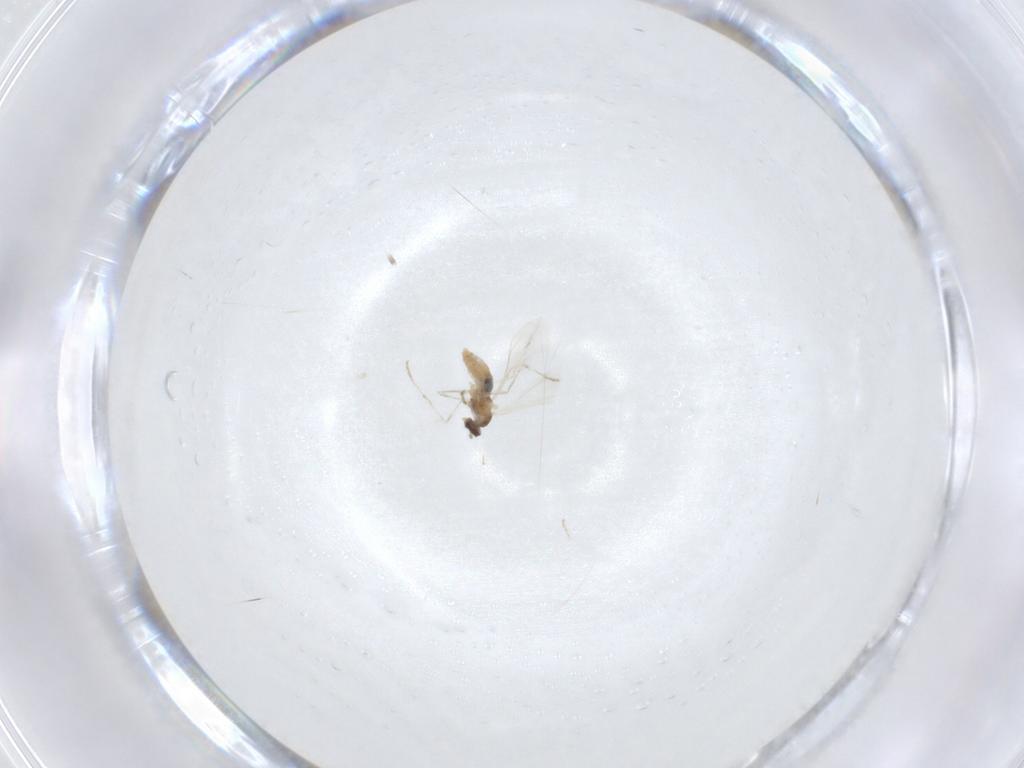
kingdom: Animalia
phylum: Arthropoda
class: Insecta
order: Diptera
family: Cecidomyiidae
